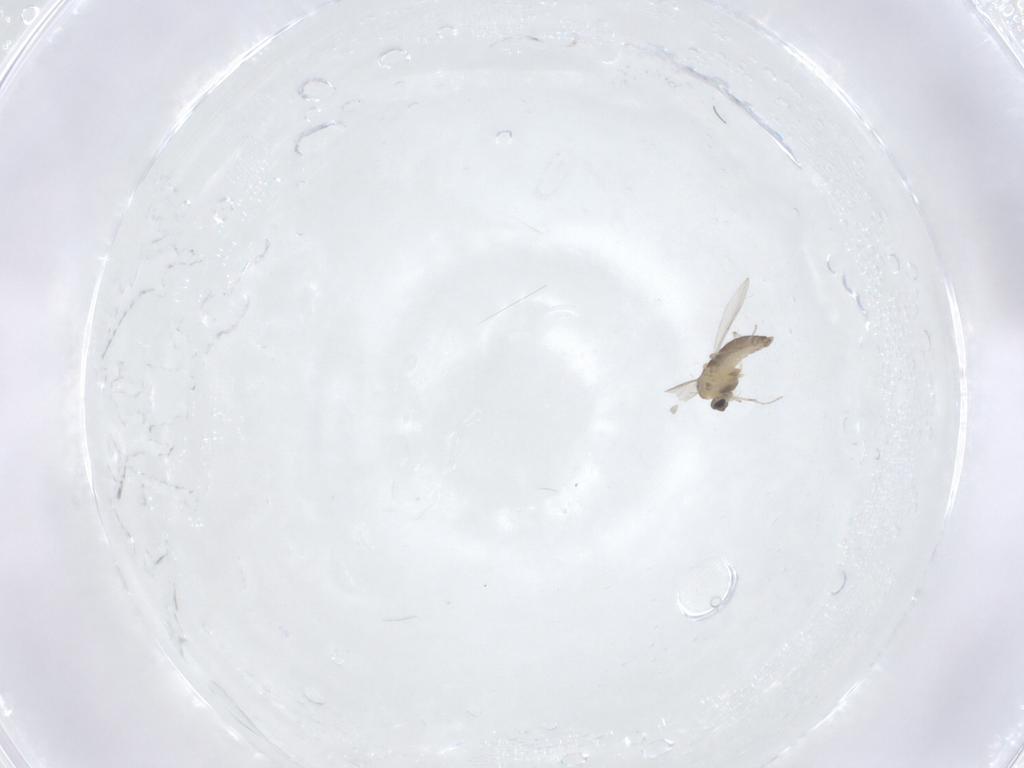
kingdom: Animalia
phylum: Arthropoda
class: Insecta
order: Diptera
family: Chironomidae
